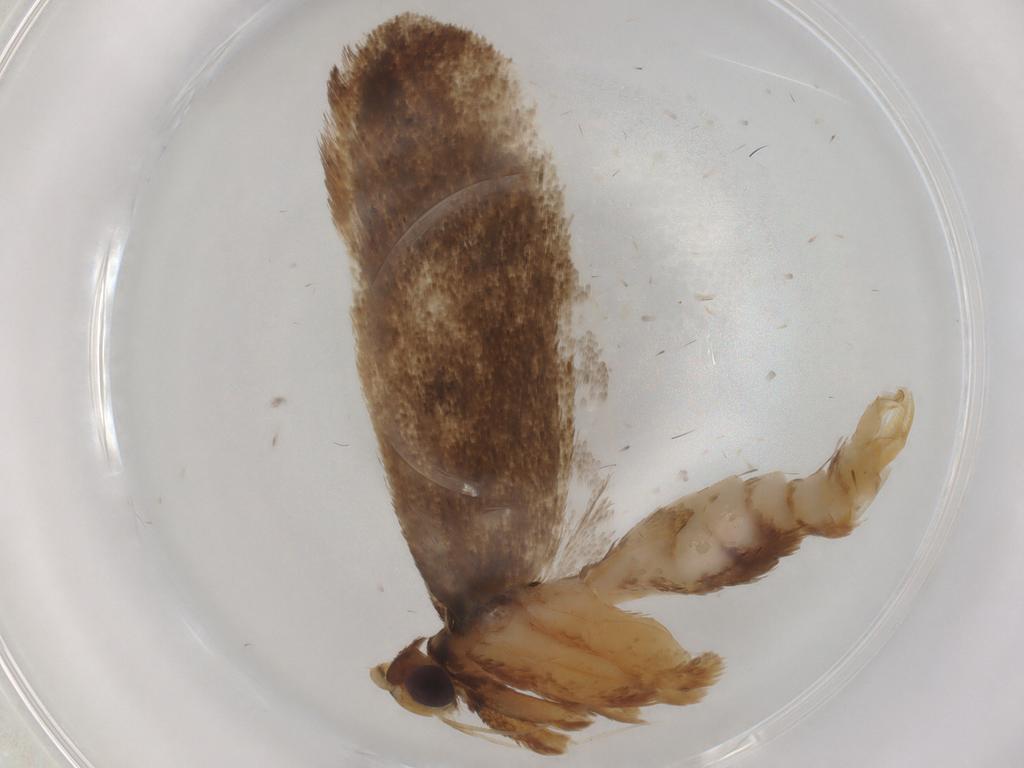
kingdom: Animalia
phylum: Arthropoda
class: Insecta
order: Lepidoptera
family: Lecithoceridae
